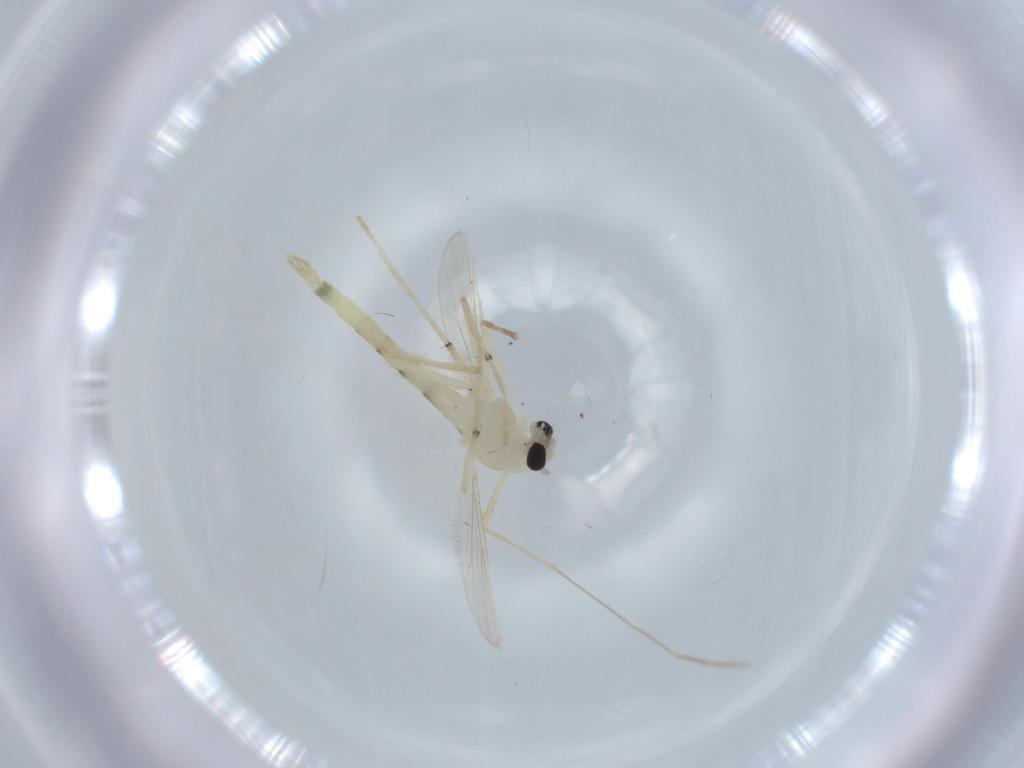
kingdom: Animalia
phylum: Arthropoda
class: Insecta
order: Diptera
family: Chironomidae
